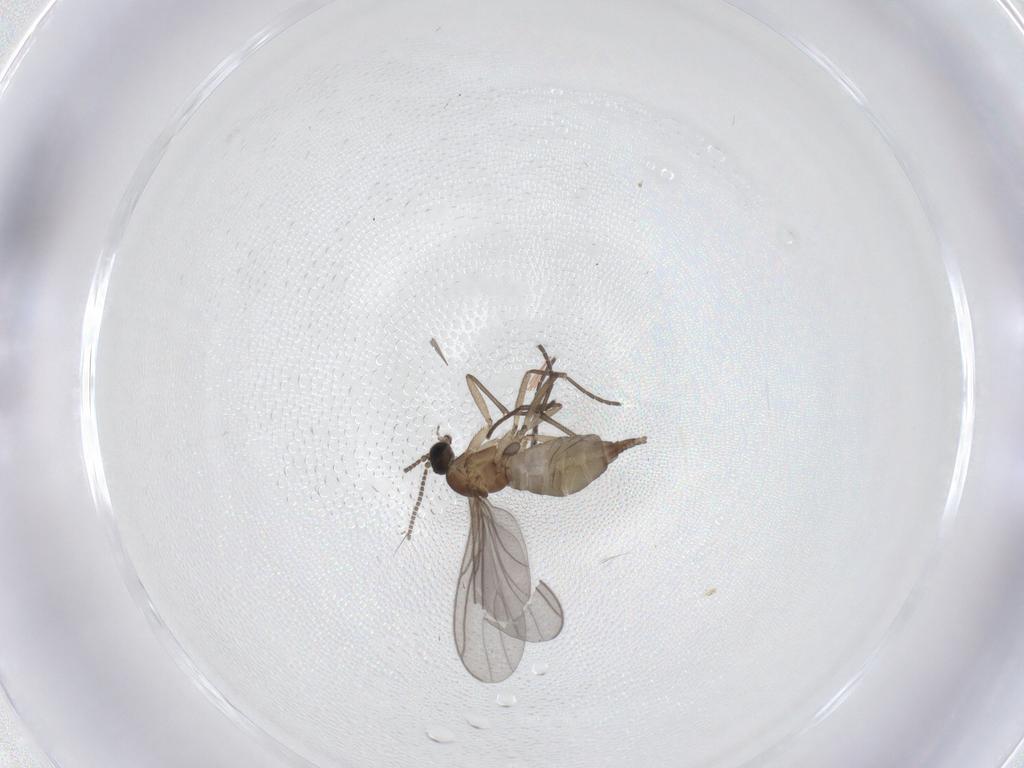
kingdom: Animalia
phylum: Arthropoda
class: Insecta
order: Diptera
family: Sciaridae
